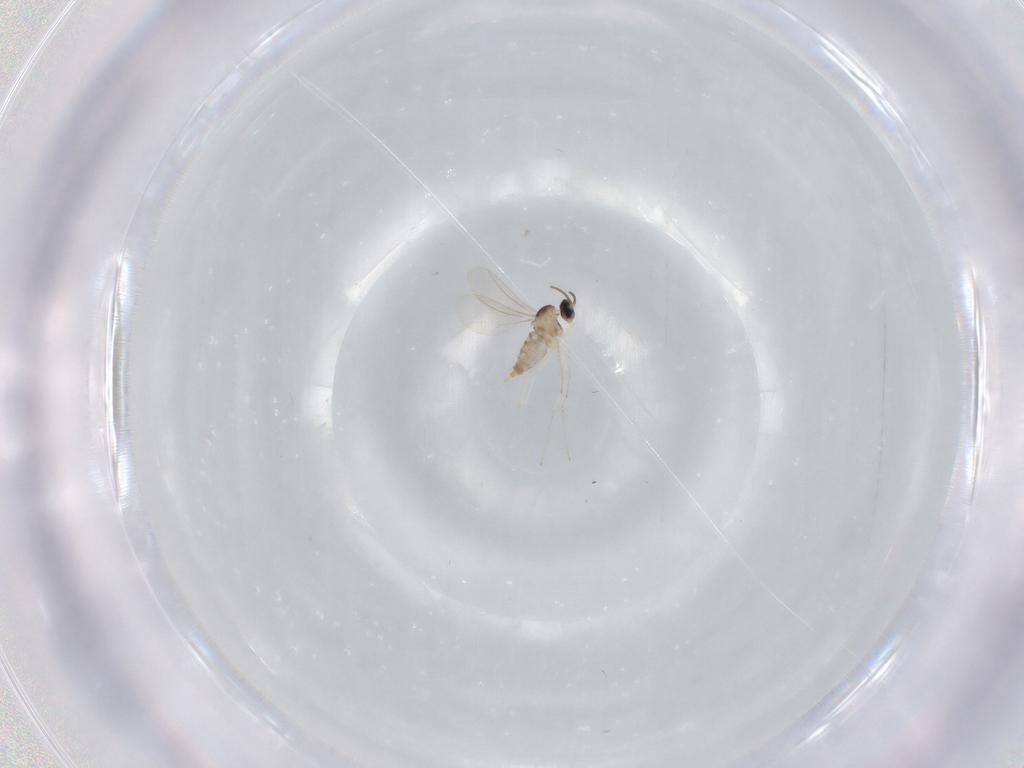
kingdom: Animalia
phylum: Arthropoda
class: Insecta
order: Diptera
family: Cecidomyiidae
